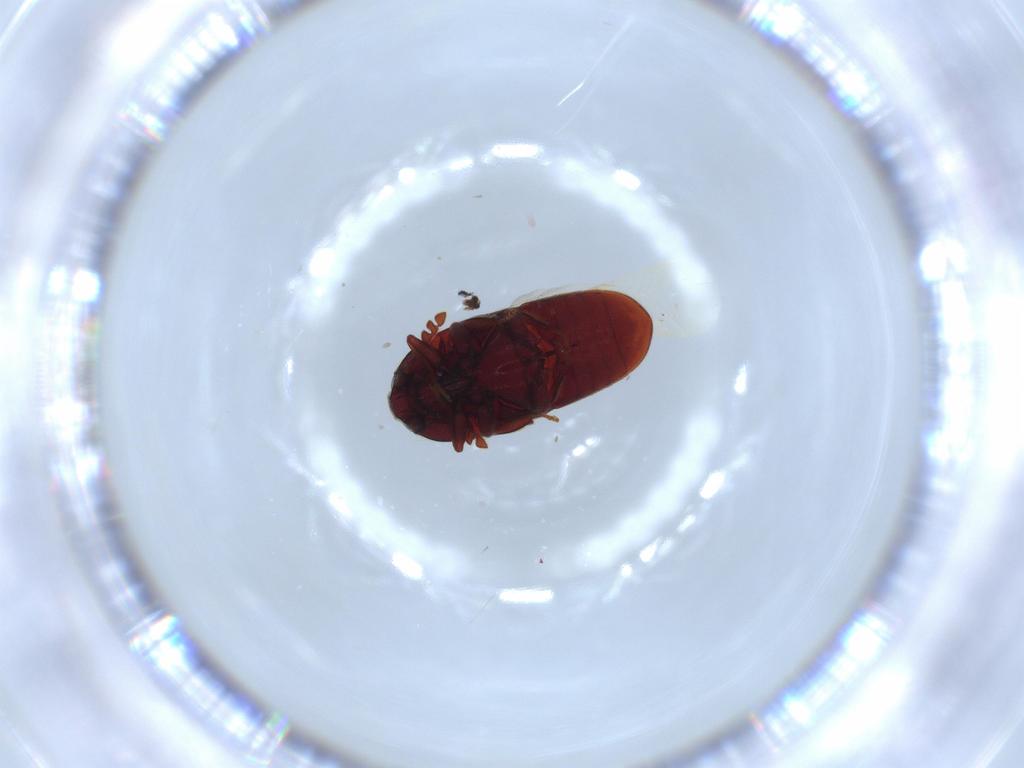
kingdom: Animalia
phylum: Arthropoda
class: Insecta
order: Coleoptera
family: Throscidae
